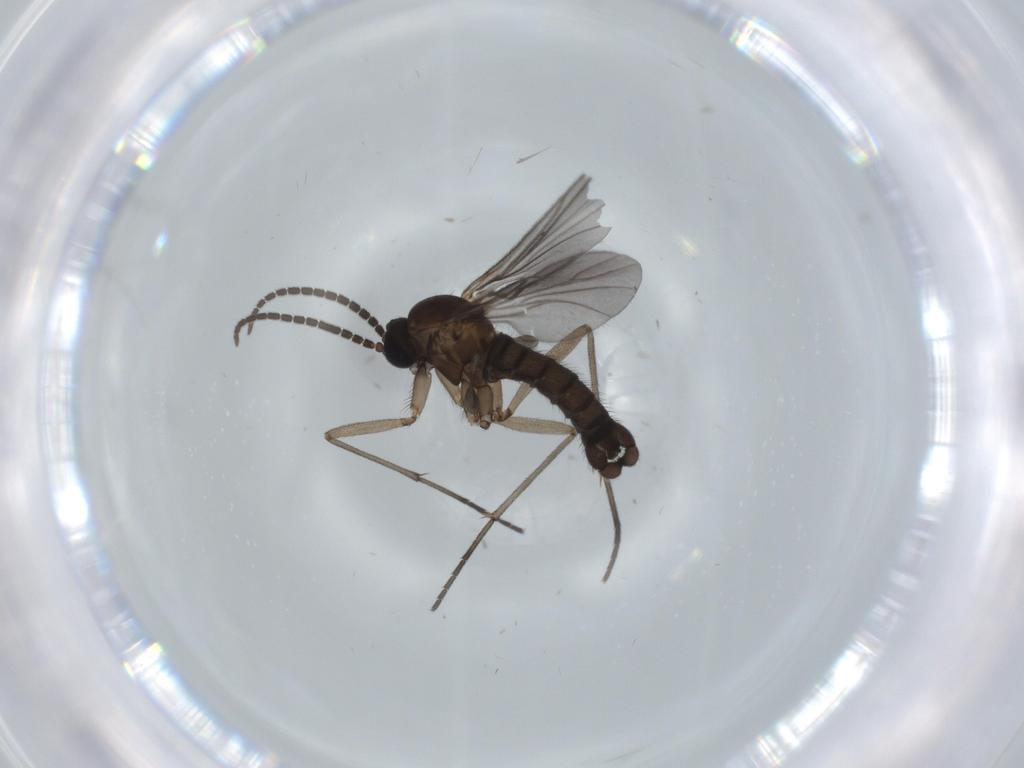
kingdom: Animalia
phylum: Arthropoda
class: Insecta
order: Diptera
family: Sciaridae
